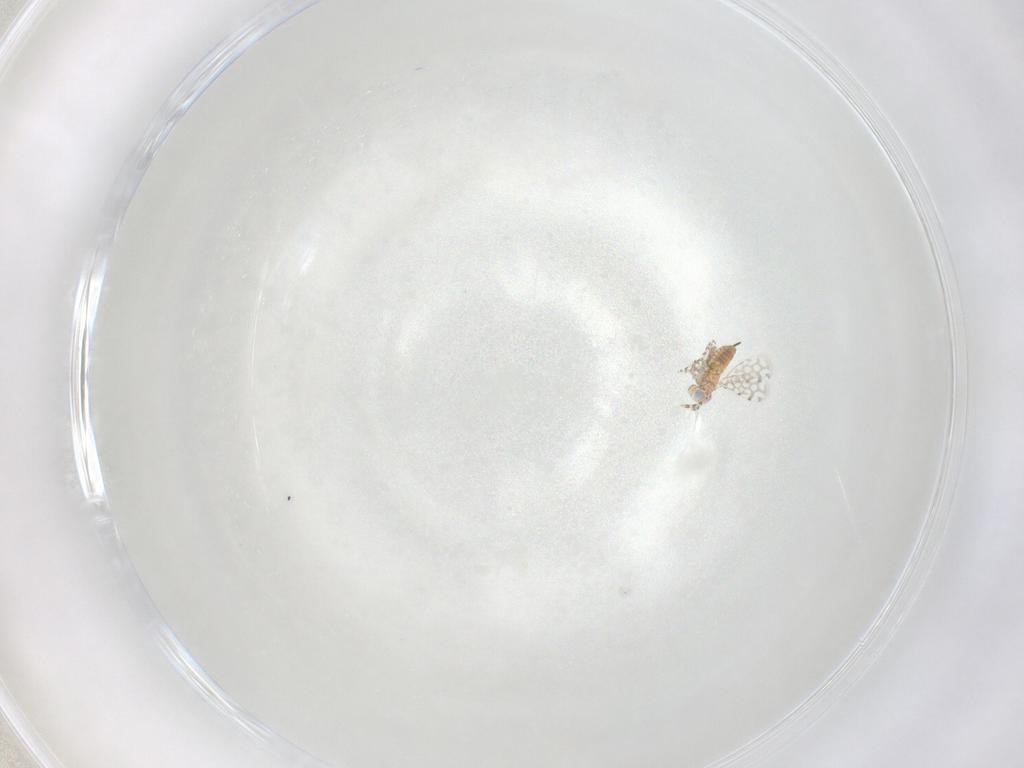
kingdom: Animalia
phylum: Arthropoda
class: Insecta
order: Hymenoptera
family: Aphelinidae
